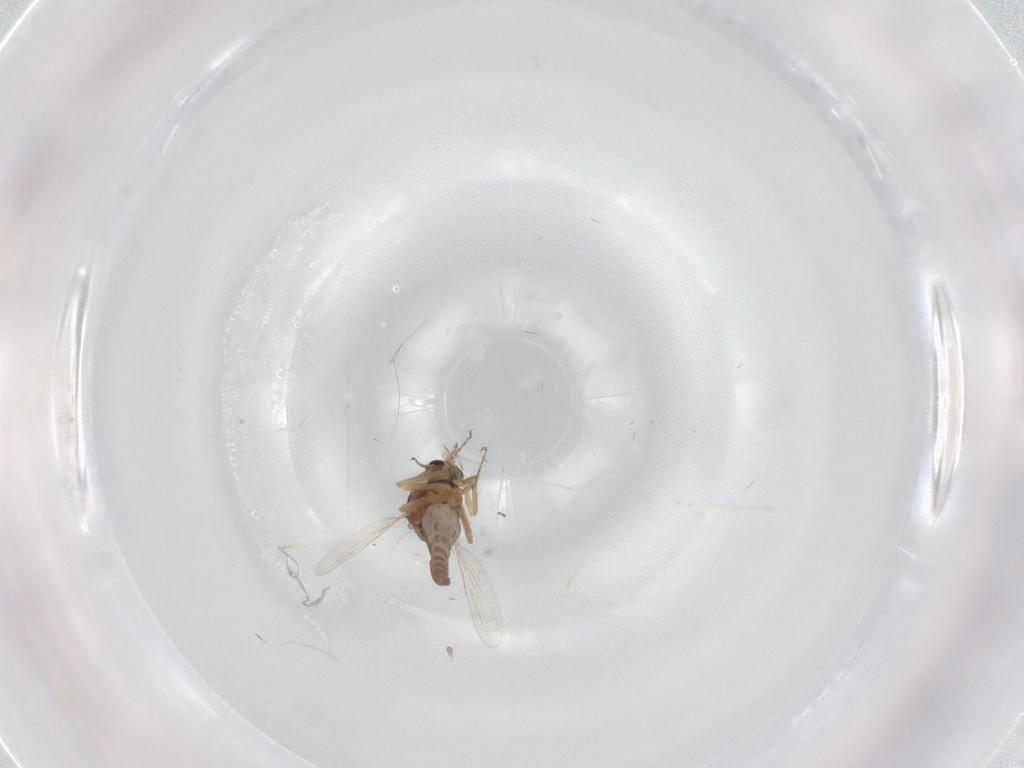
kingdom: Animalia
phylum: Arthropoda
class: Insecta
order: Diptera
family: Ceratopogonidae
